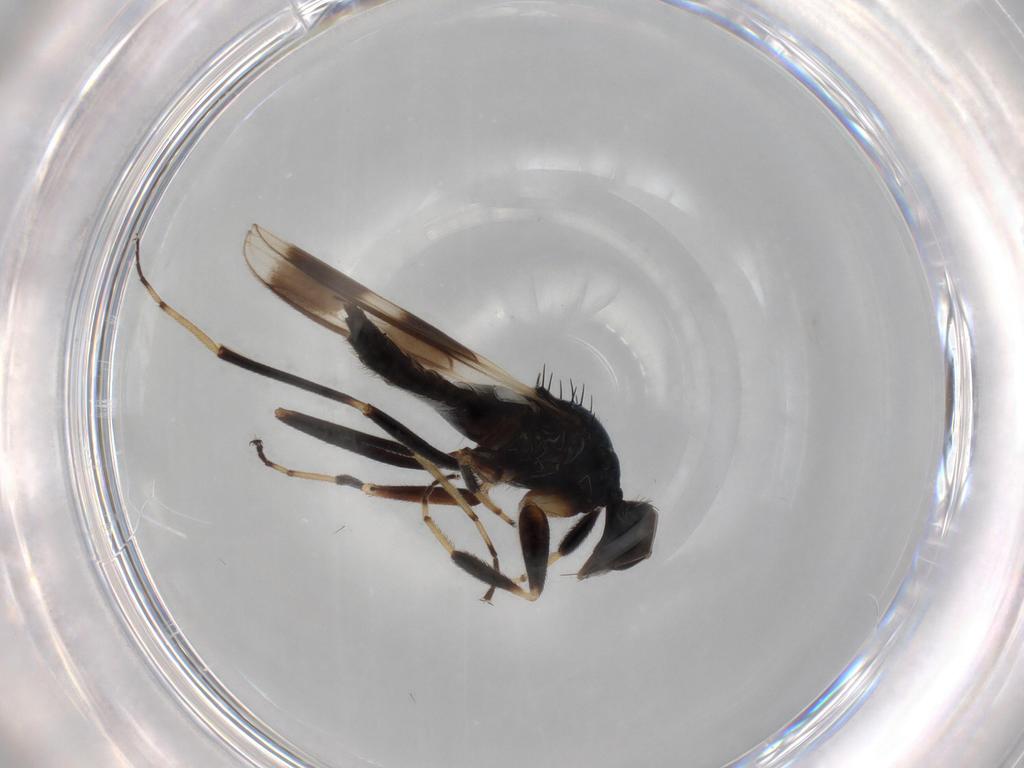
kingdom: Animalia
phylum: Arthropoda
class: Insecta
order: Diptera
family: Hybotidae
